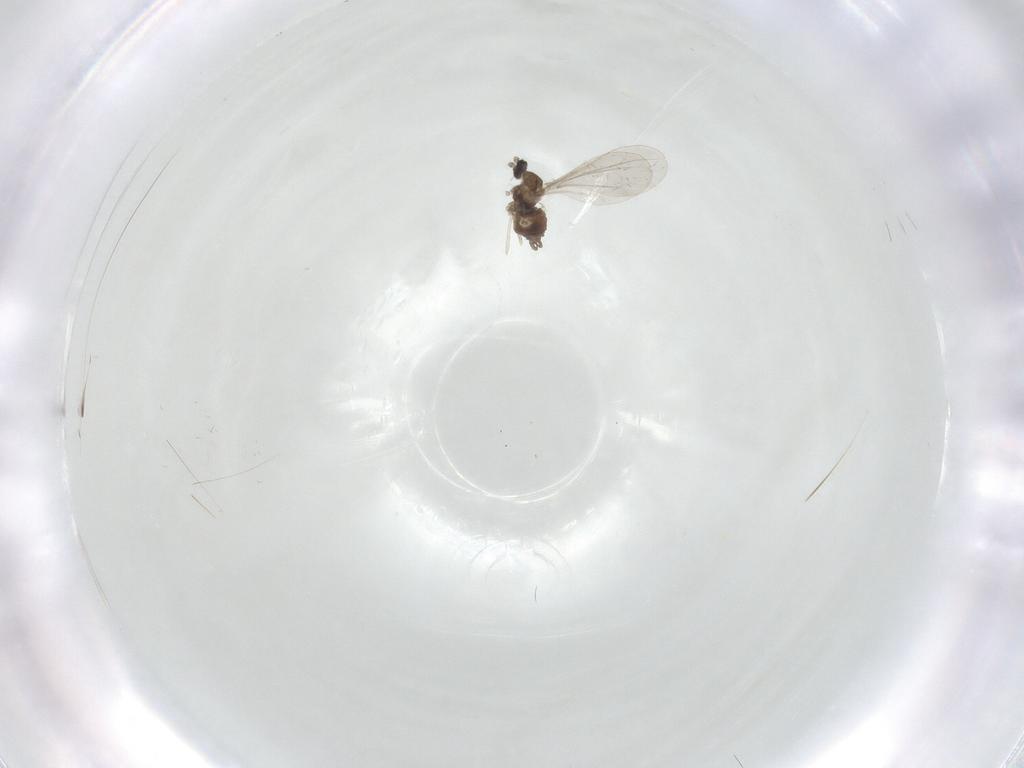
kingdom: Animalia
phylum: Arthropoda
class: Insecta
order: Diptera
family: Cecidomyiidae
